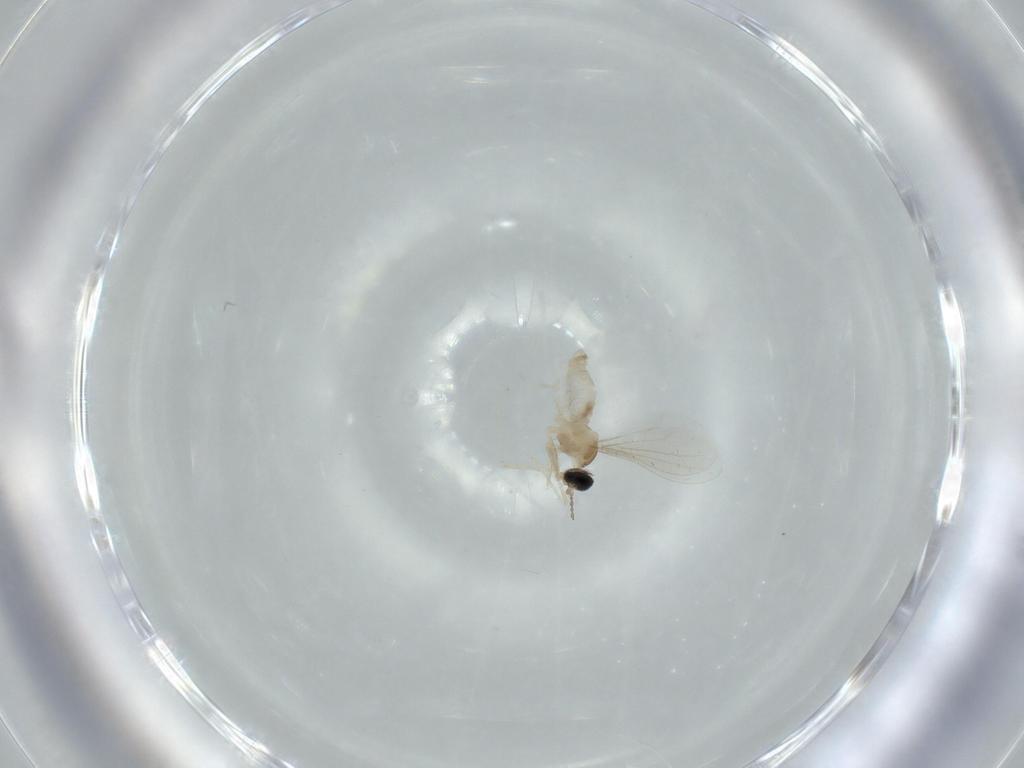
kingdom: Animalia
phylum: Arthropoda
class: Insecta
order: Diptera
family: Cecidomyiidae
